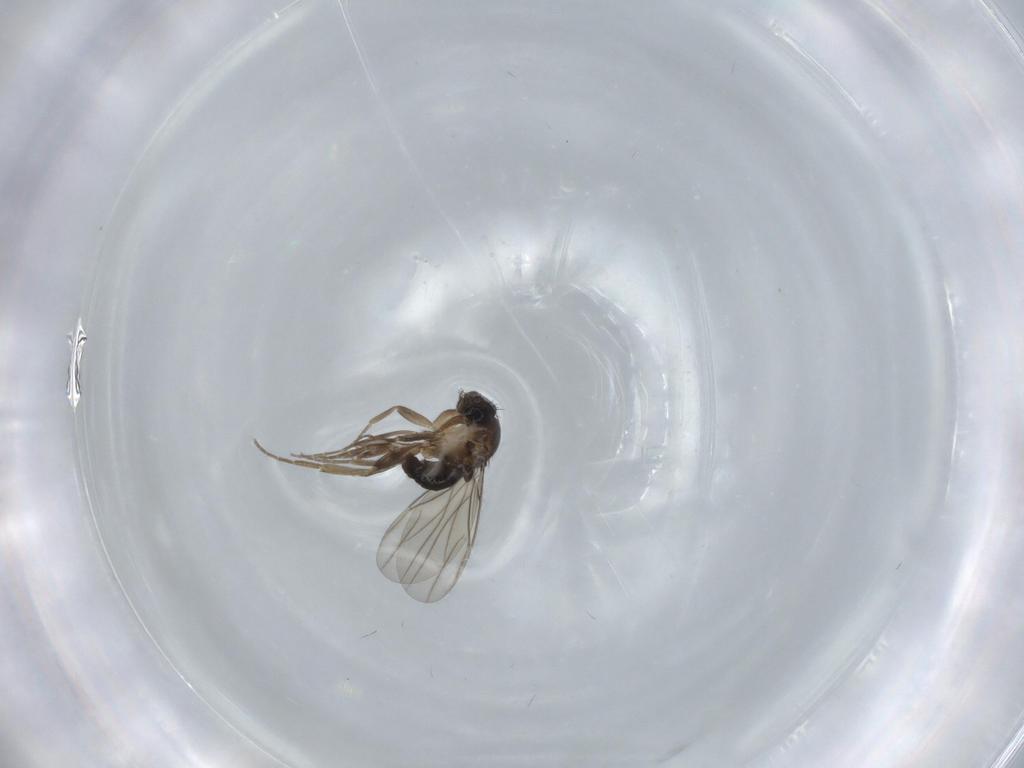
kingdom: Animalia
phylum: Arthropoda
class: Insecta
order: Diptera
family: Phoridae
